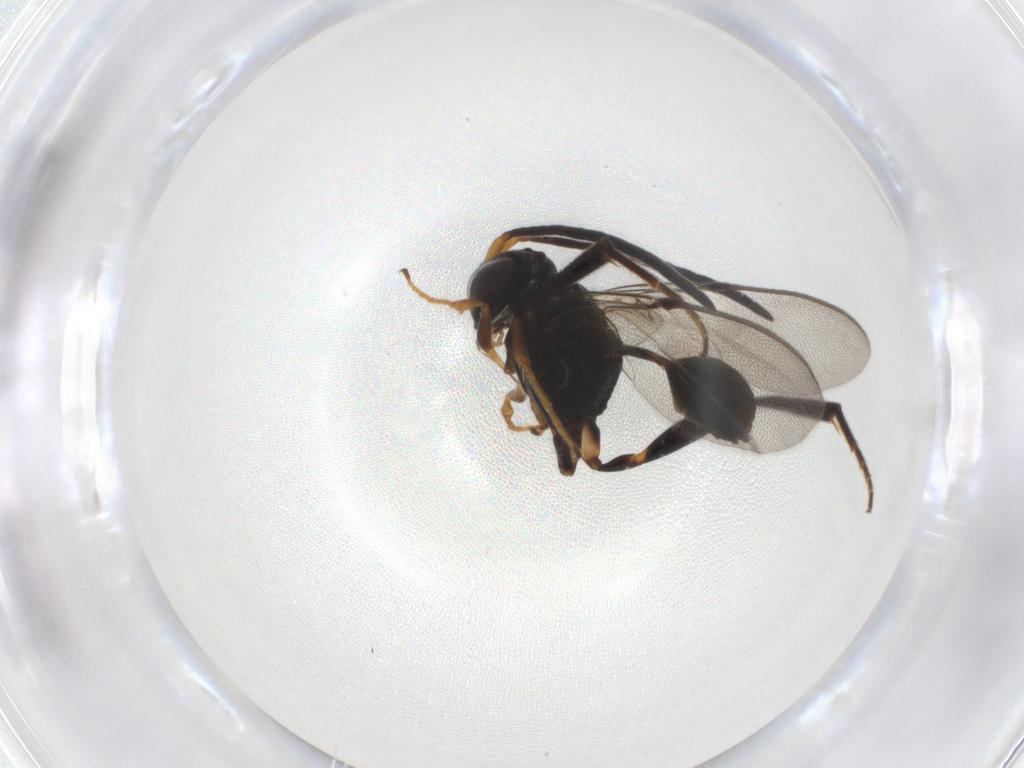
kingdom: Animalia
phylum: Arthropoda
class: Insecta
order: Hymenoptera
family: Evaniidae
